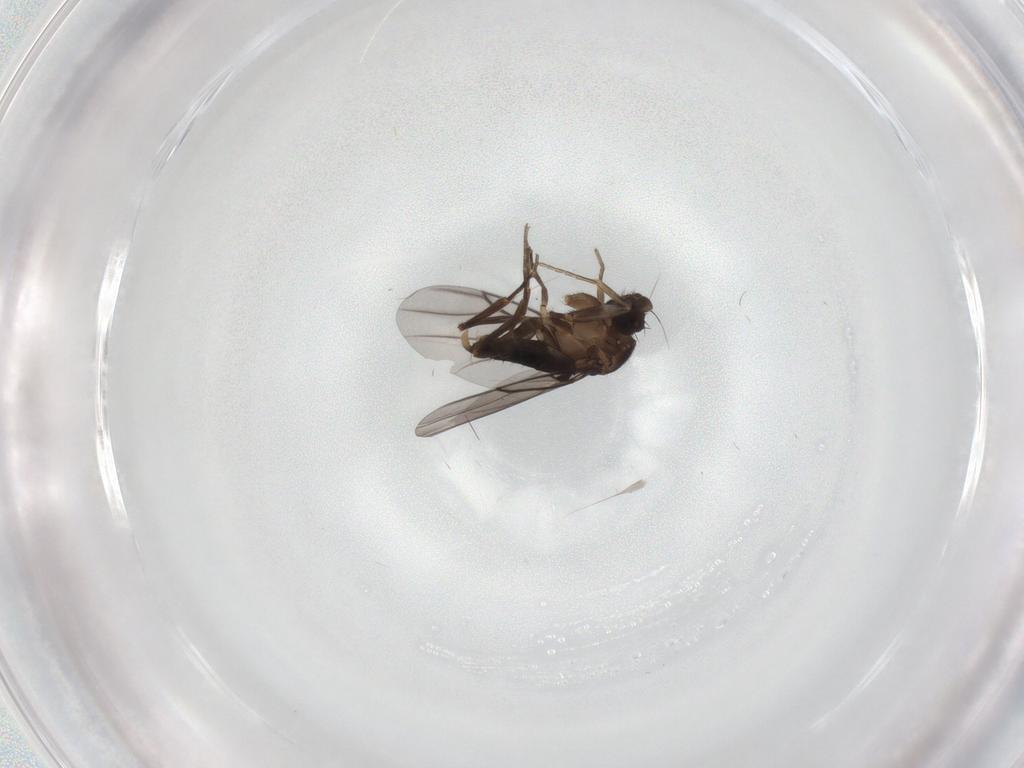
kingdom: Animalia
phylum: Arthropoda
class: Insecta
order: Diptera
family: Phoridae
